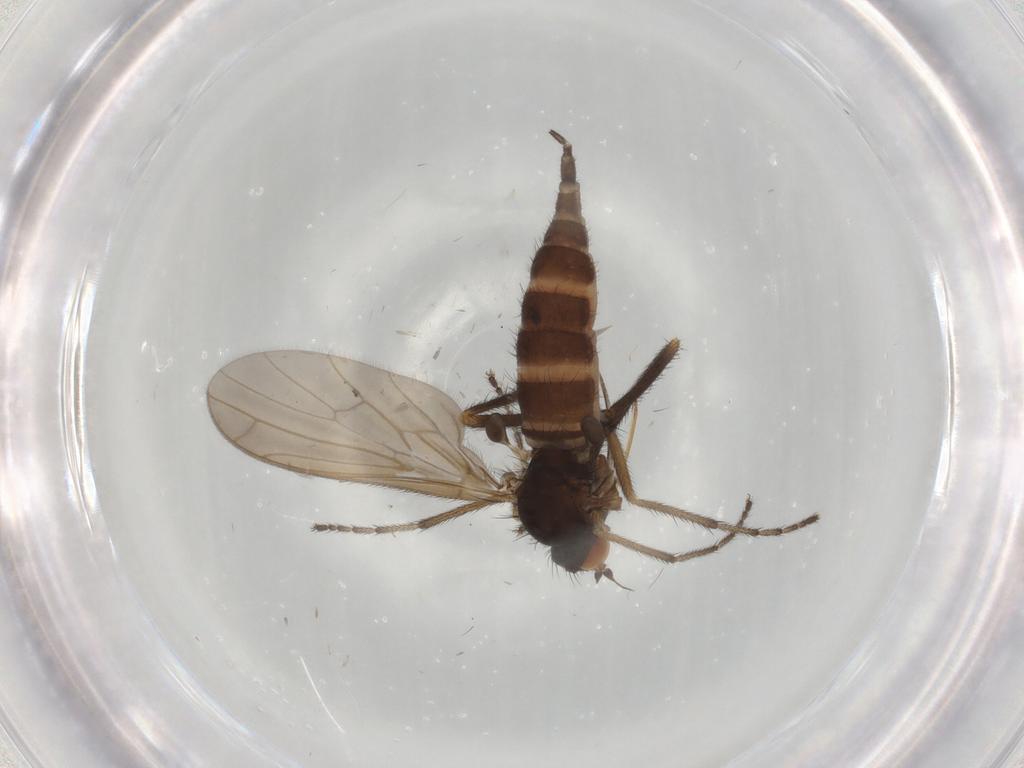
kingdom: Animalia
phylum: Arthropoda
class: Insecta
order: Diptera
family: Empididae
